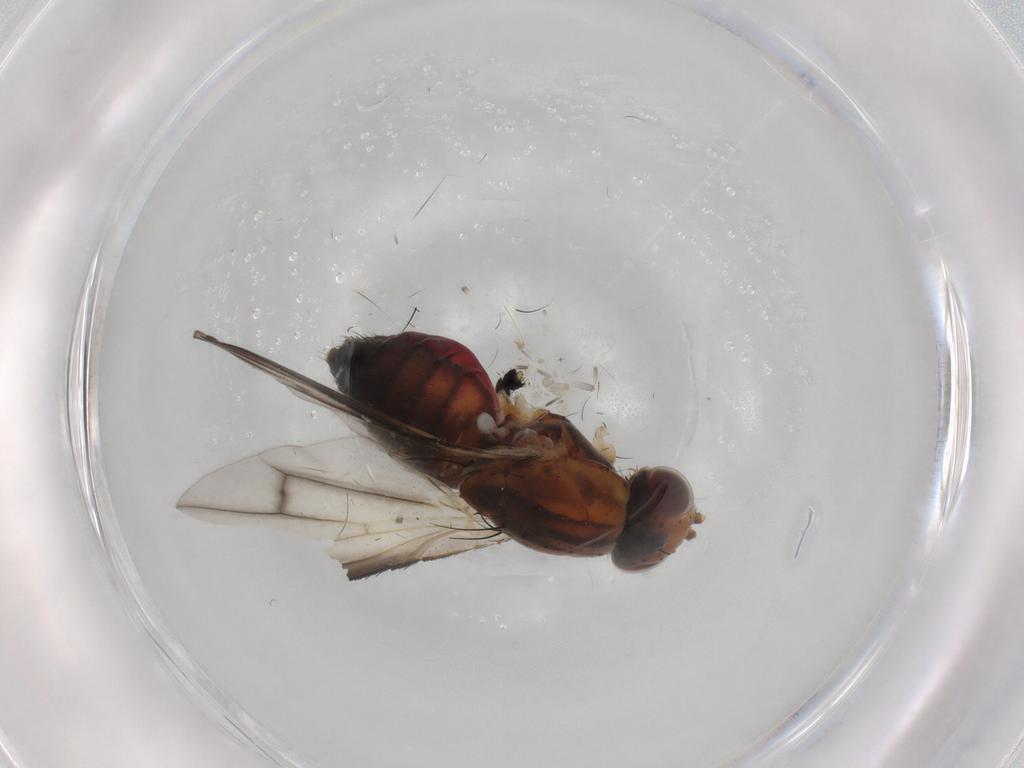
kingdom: Animalia
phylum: Arthropoda
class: Insecta
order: Diptera
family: Heleomyzidae
